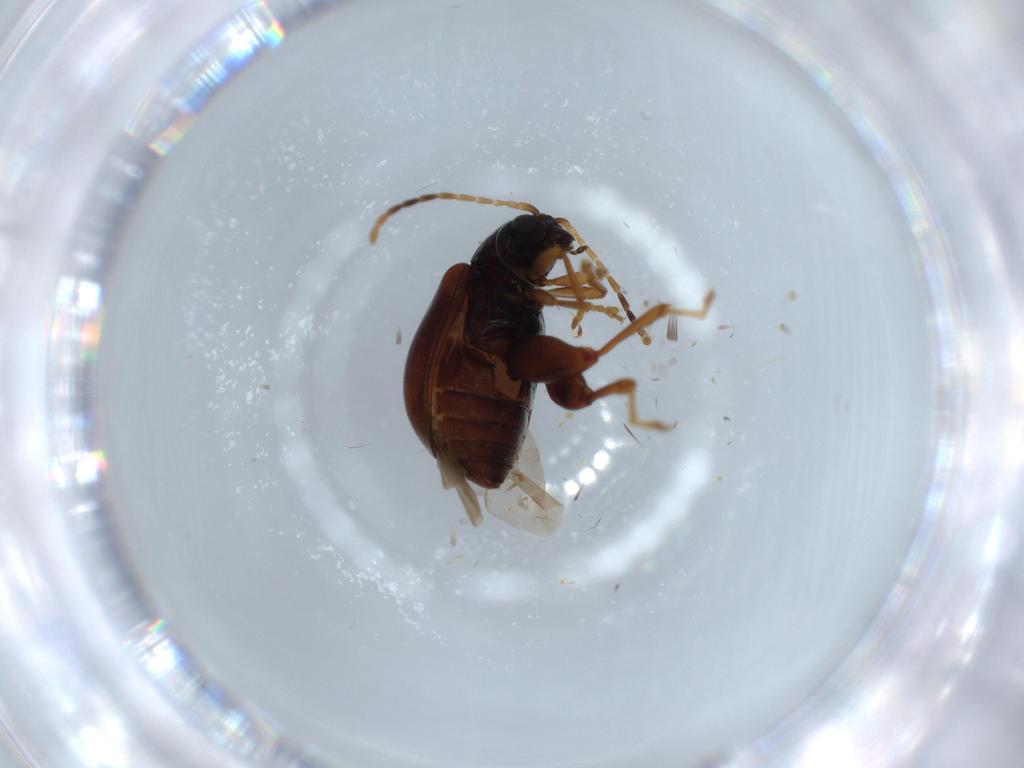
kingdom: Animalia
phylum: Arthropoda
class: Insecta
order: Coleoptera
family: Chrysomelidae
